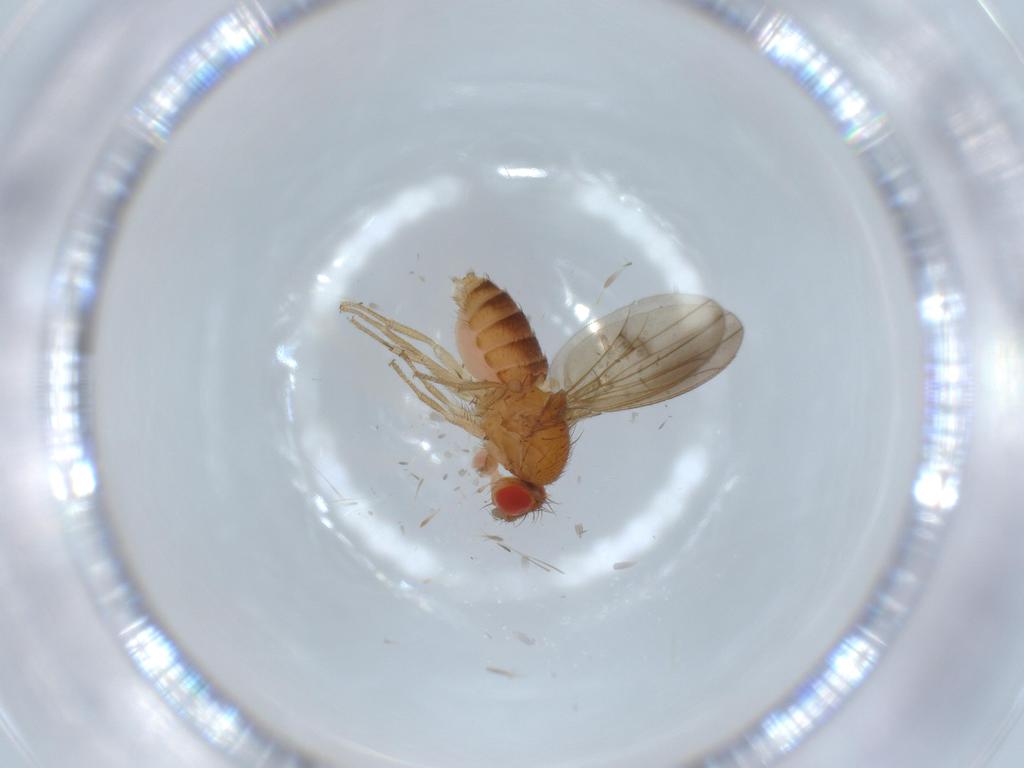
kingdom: Animalia
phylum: Arthropoda
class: Insecta
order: Diptera
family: Drosophilidae
